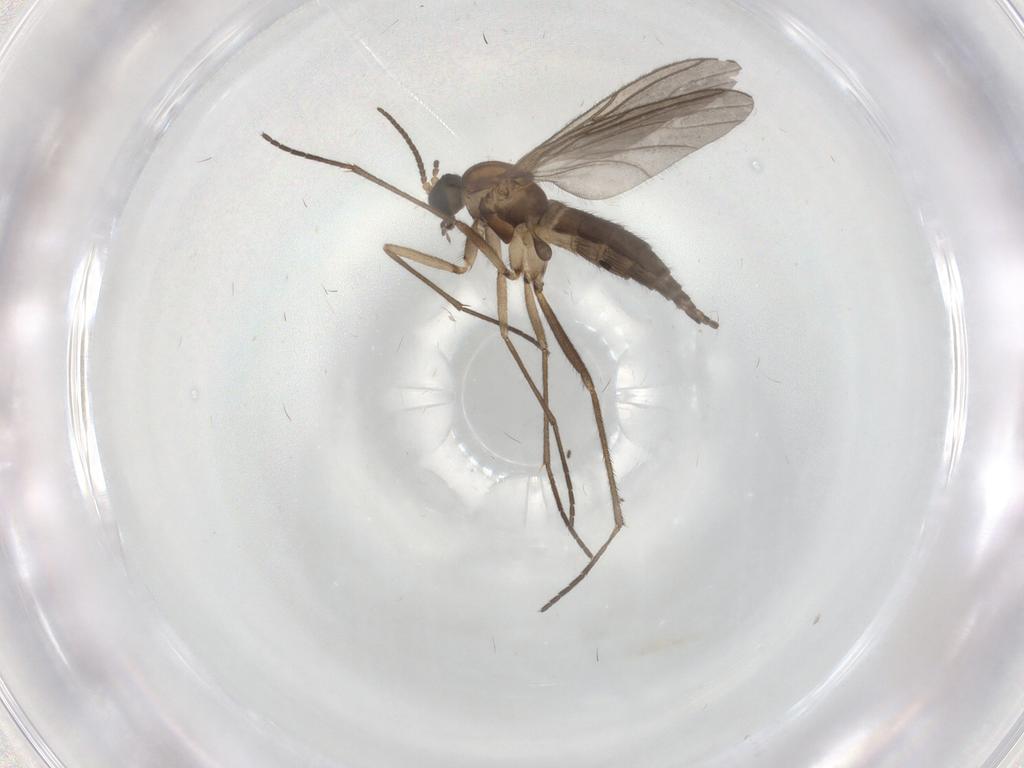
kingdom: Animalia
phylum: Arthropoda
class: Insecta
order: Diptera
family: Sciaridae
